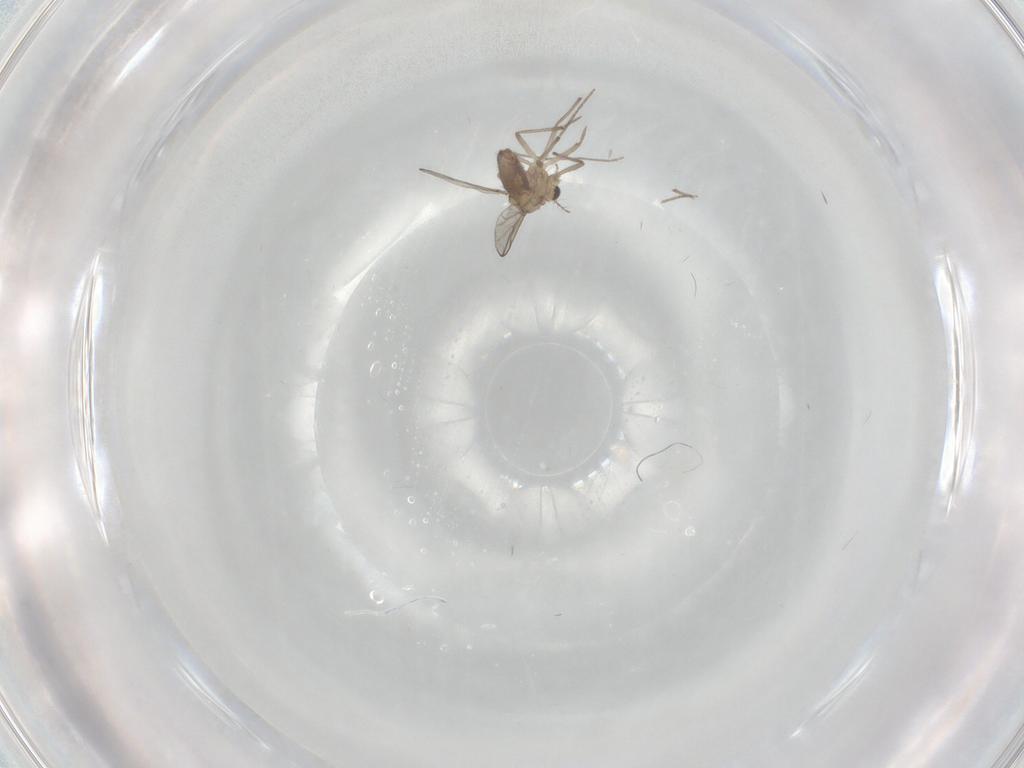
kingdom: Animalia
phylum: Arthropoda
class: Insecta
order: Diptera
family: Chironomidae
